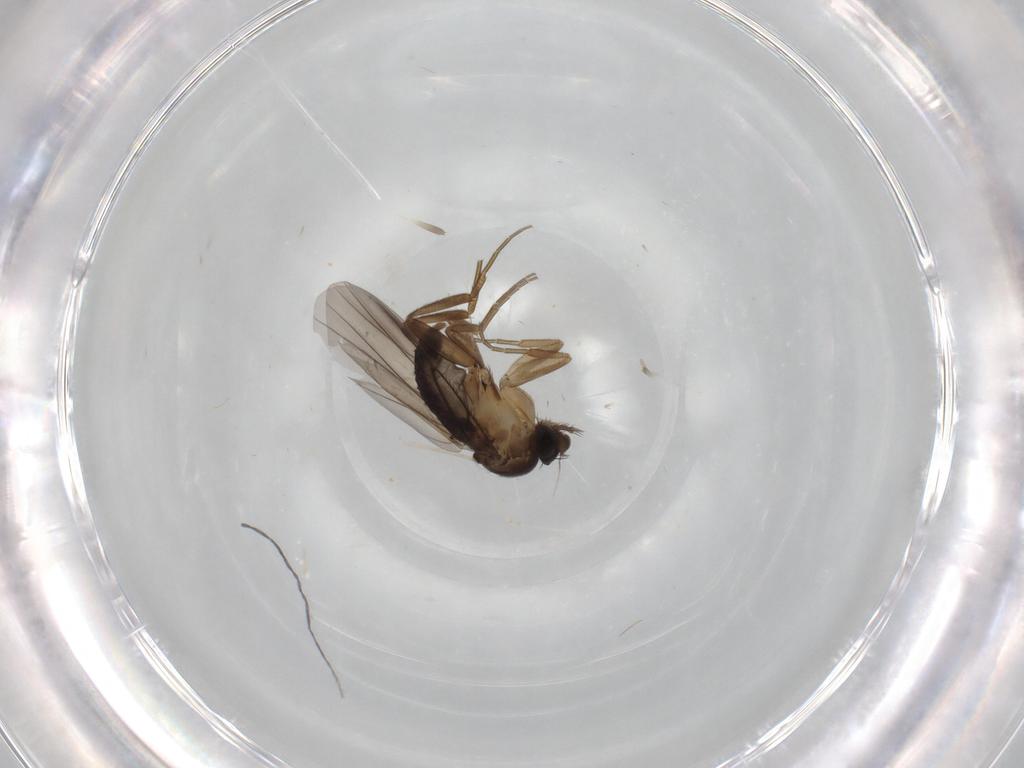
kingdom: Animalia
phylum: Arthropoda
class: Insecta
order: Diptera
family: Phoridae
